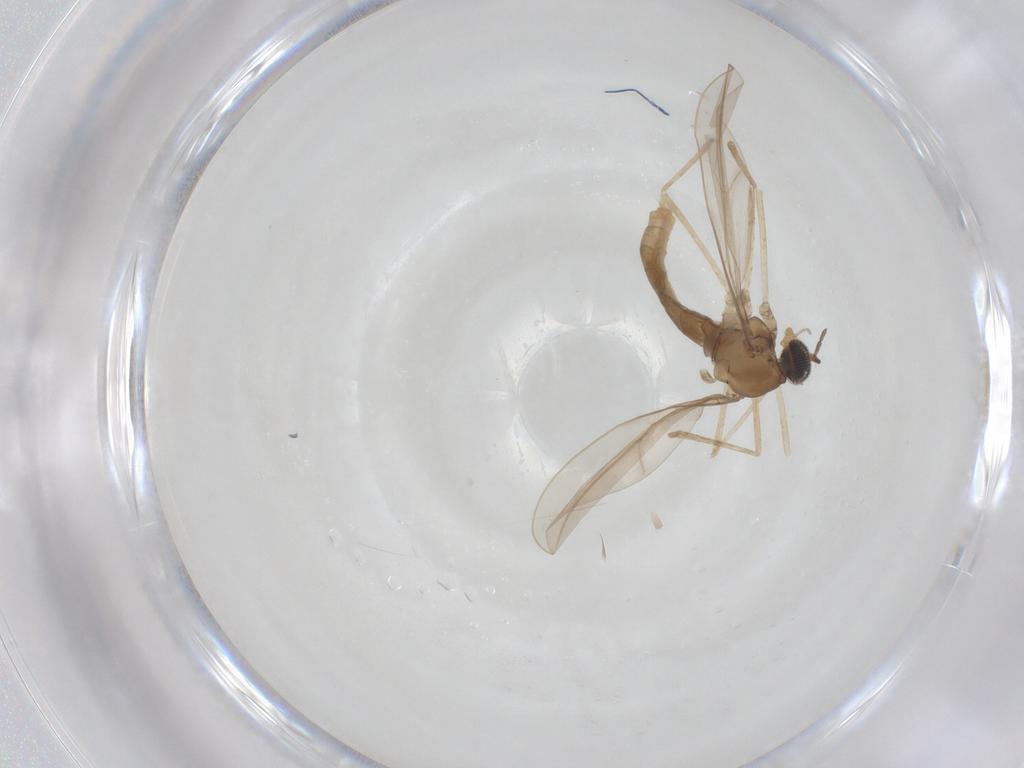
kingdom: Animalia
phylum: Arthropoda
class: Insecta
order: Diptera
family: Cecidomyiidae
